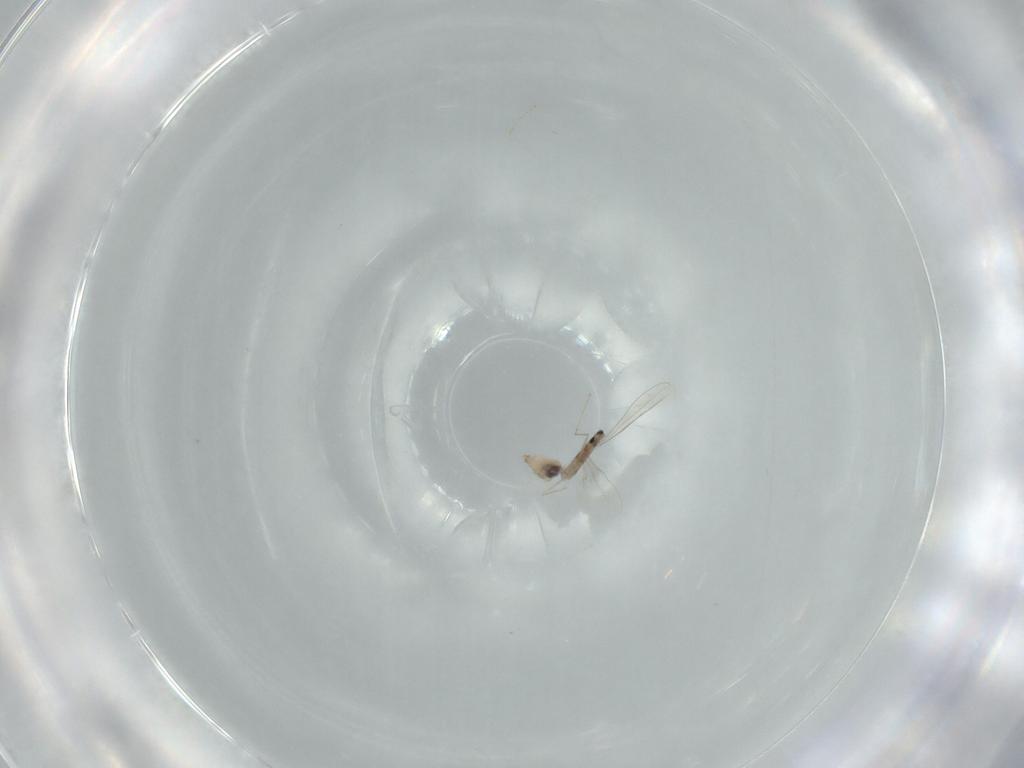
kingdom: Animalia
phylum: Arthropoda
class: Insecta
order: Diptera
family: Cecidomyiidae
